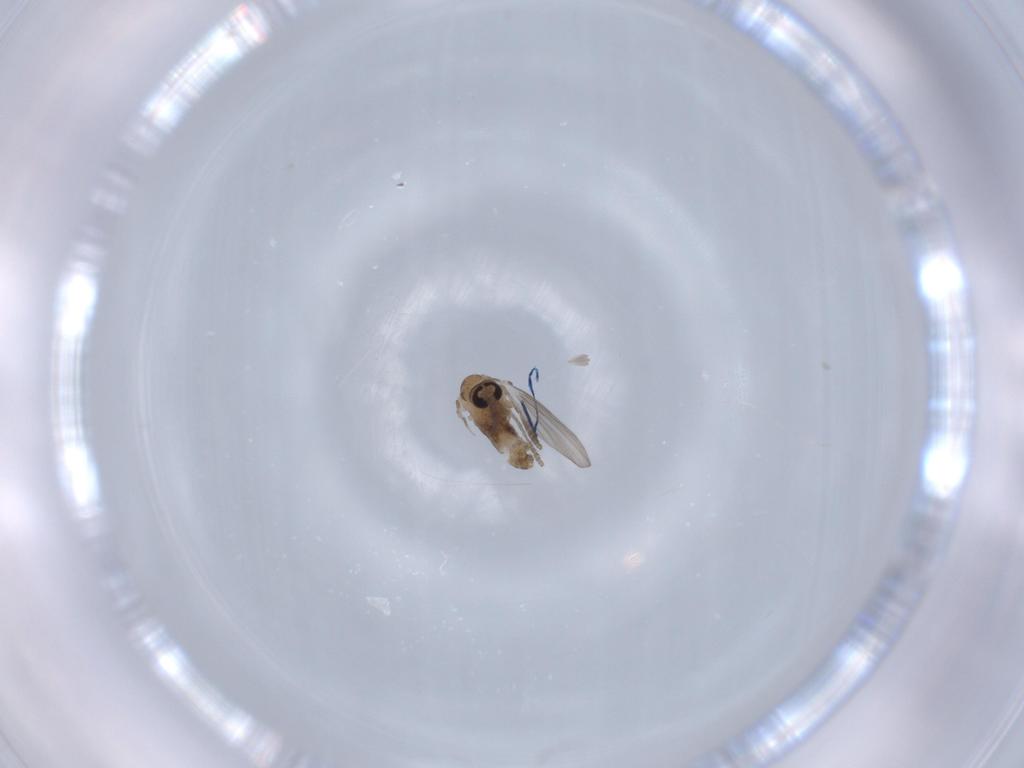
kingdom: Animalia
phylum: Arthropoda
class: Insecta
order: Diptera
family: Psychodidae
